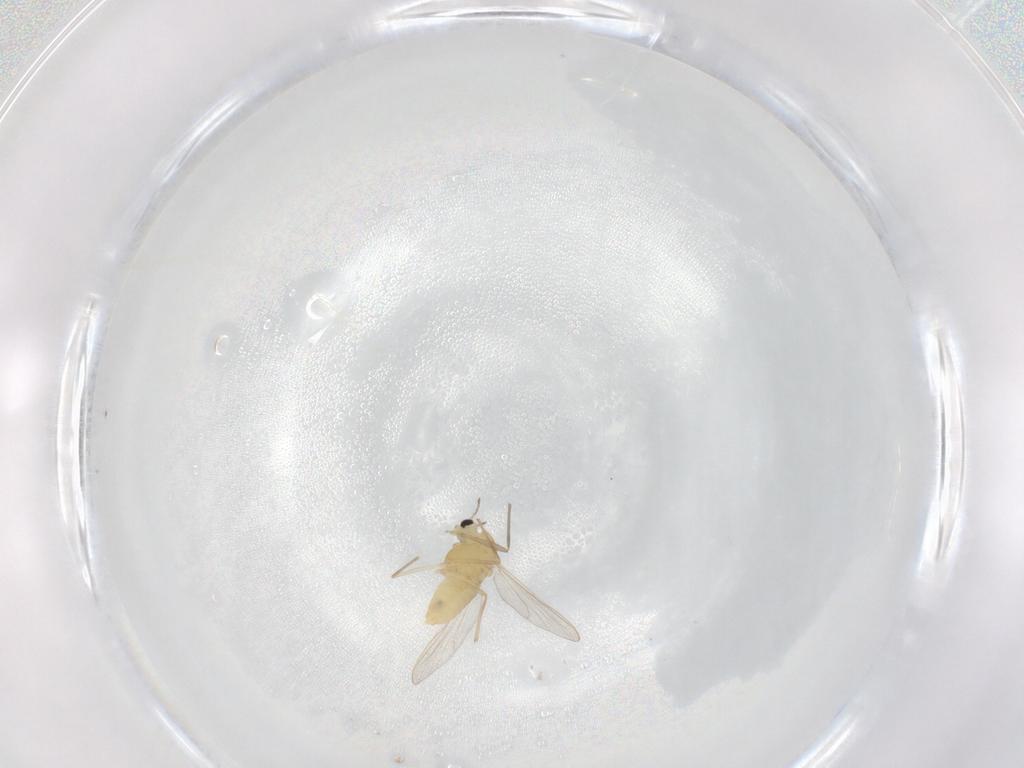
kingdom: Animalia
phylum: Arthropoda
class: Insecta
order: Diptera
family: Chironomidae
